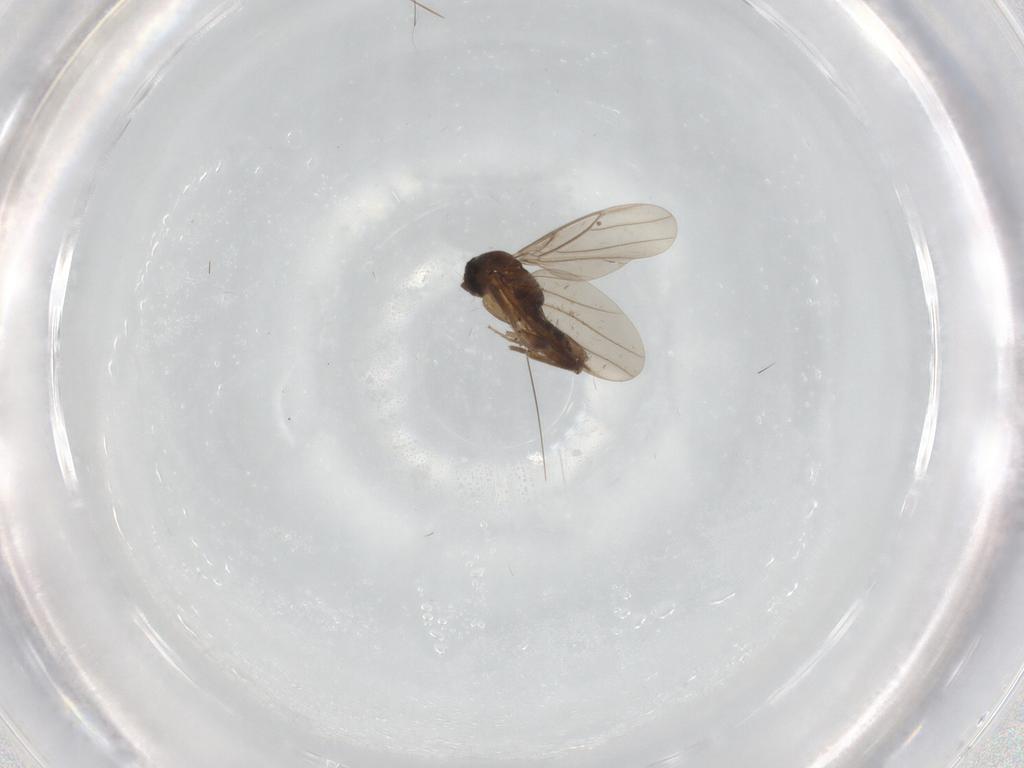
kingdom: Animalia
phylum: Arthropoda
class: Insecta
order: Diptera
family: Psychodidae
